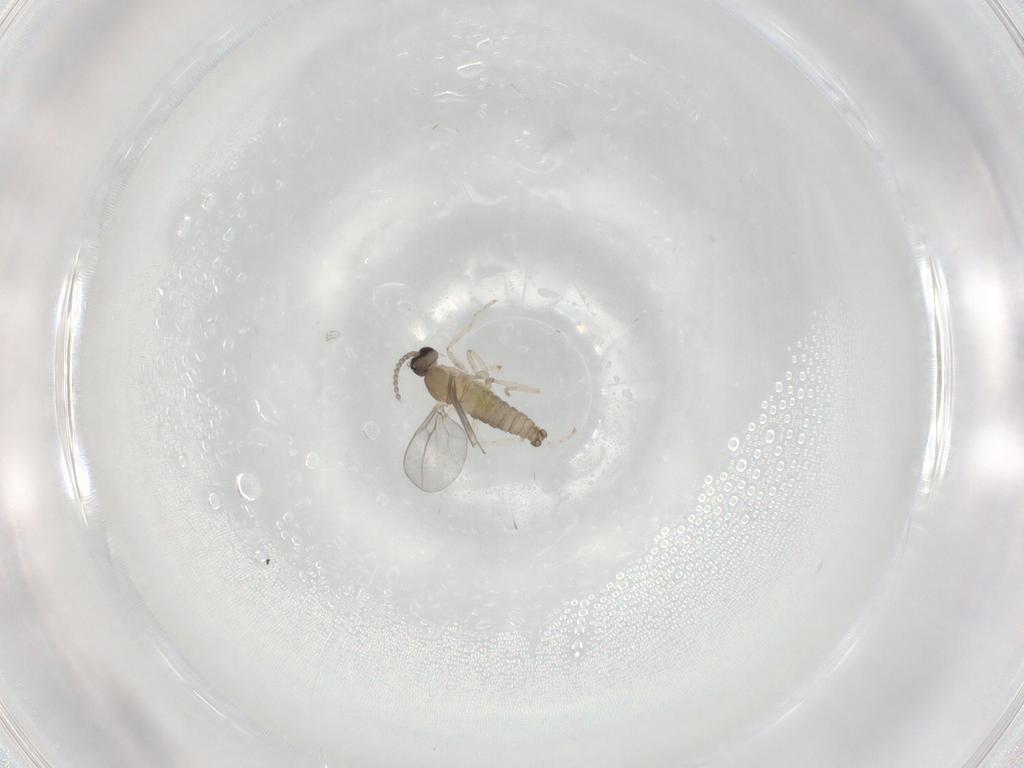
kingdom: Animalia
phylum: Arthropoda
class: Insecta
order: Diptera
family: Cecidomyiidae
